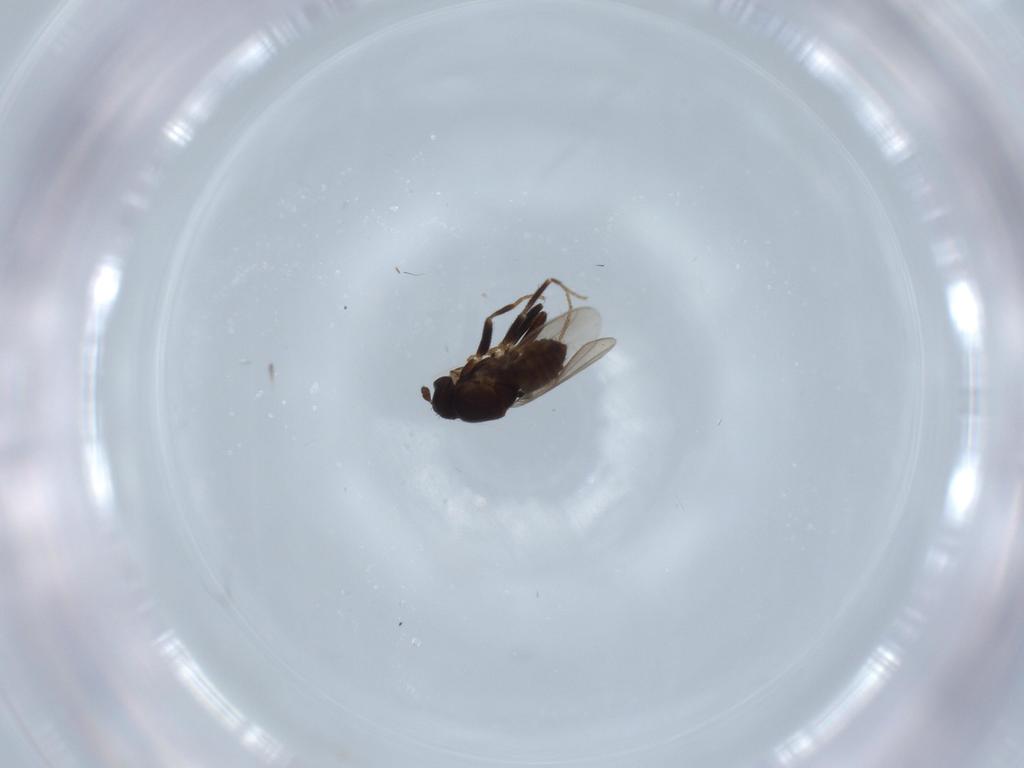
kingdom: Animalia
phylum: Arthropoda
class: Insecta
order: Diptera
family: Sphaeroceridae
